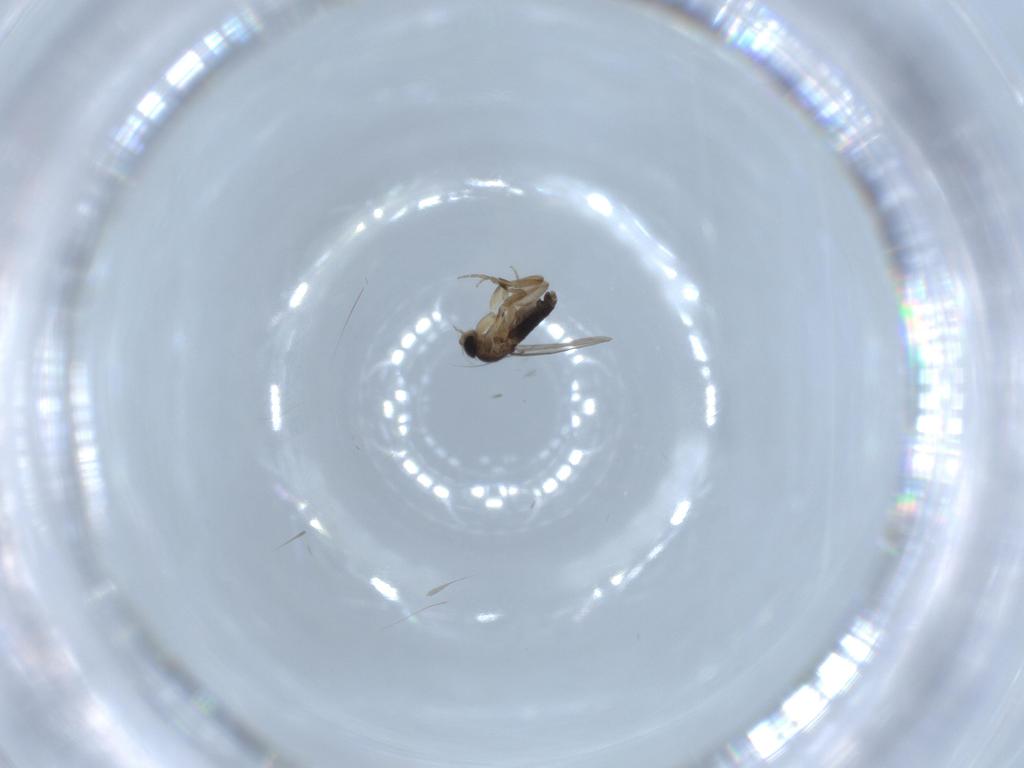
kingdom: Animalia
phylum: Arthropoda
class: Insecta
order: Diptera
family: Phoridae
